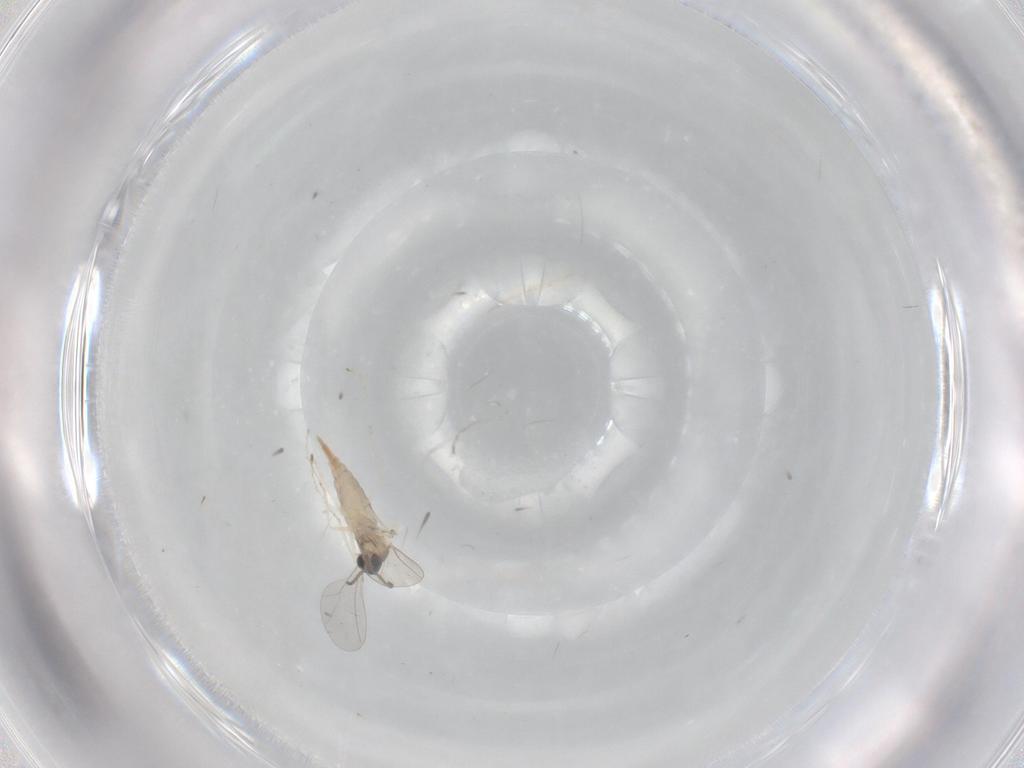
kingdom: Animalia
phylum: Arthropoda
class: Insecta
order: Diptera
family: Cecidomyiidae
